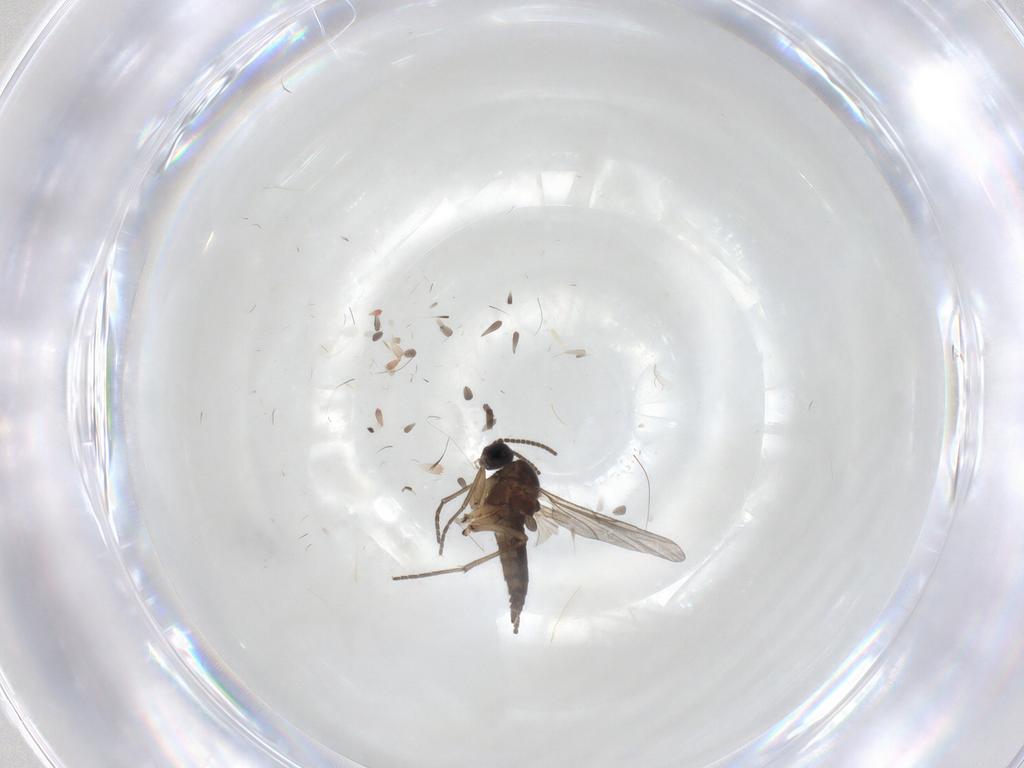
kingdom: Animalia
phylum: Arthropoda
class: Insecta
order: Diptera
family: Sciaridae
